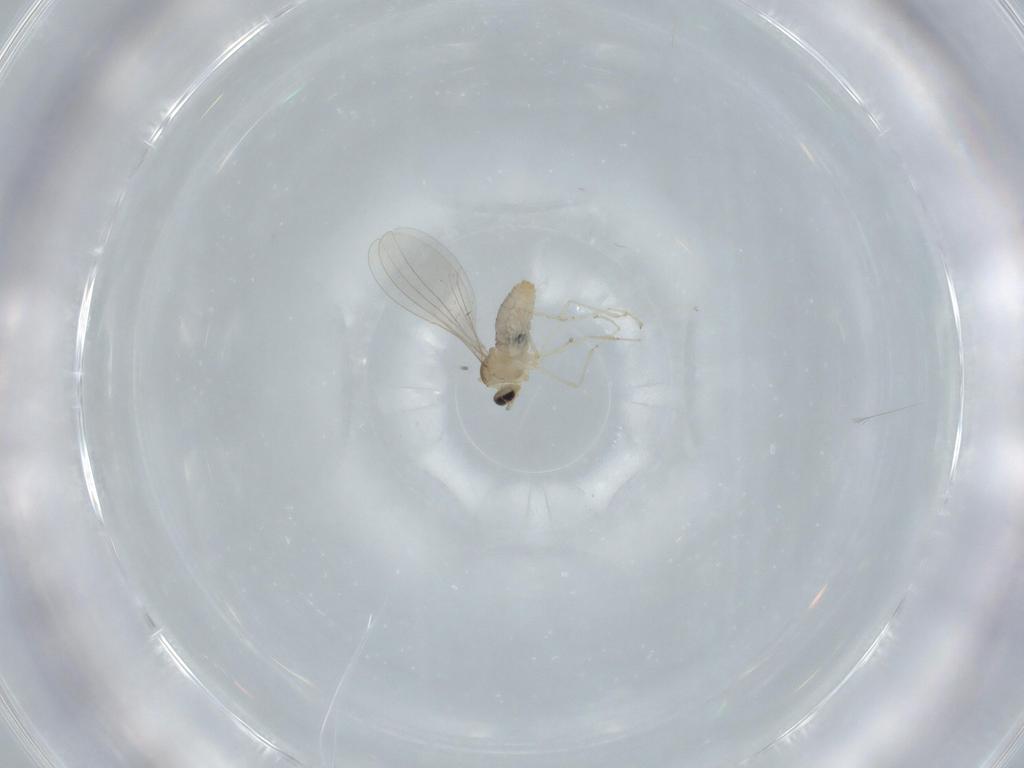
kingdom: Animalia
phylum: Arthropoda
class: Insecta
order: Diptera
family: Cecidomyiidae
